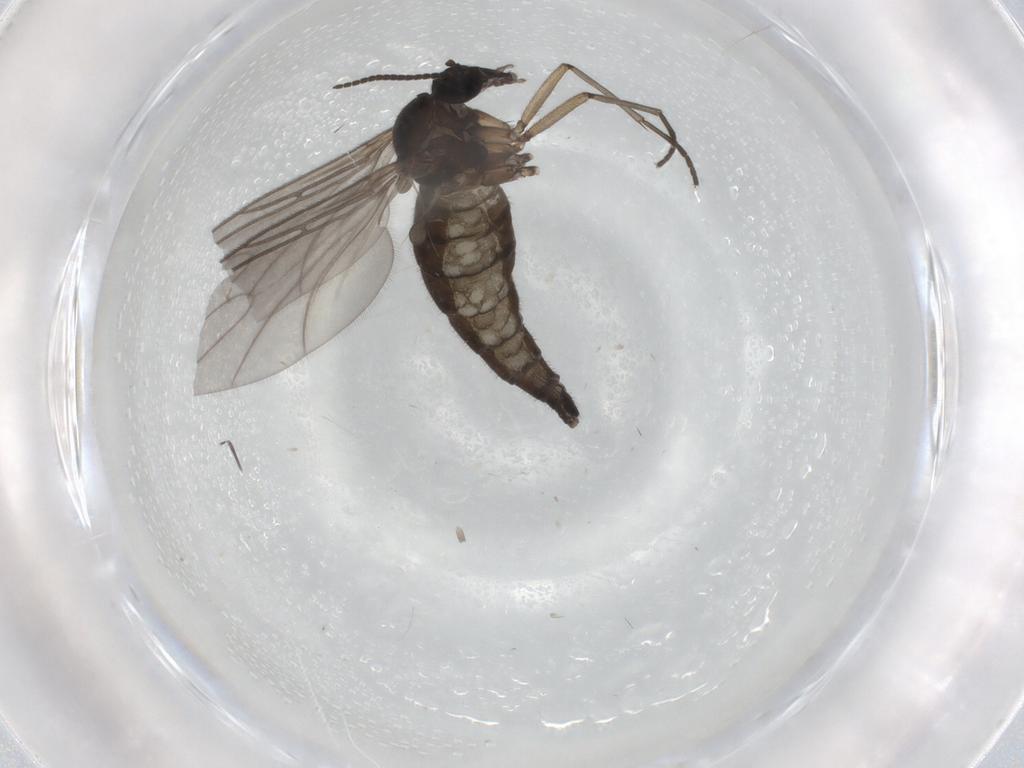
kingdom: Animalia
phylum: Arthropoda
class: Insecta
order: Diptera
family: Sciaridae
